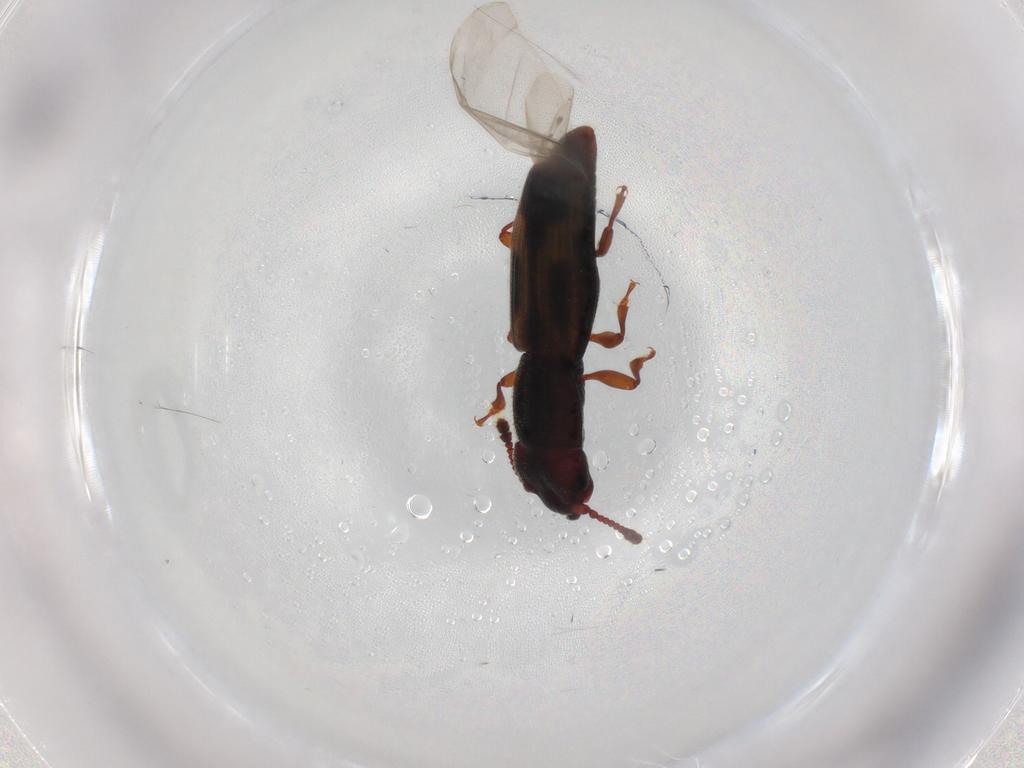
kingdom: Animalia
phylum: Arthropoda
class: Insecta
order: Coleoptera
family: Monotomidae
